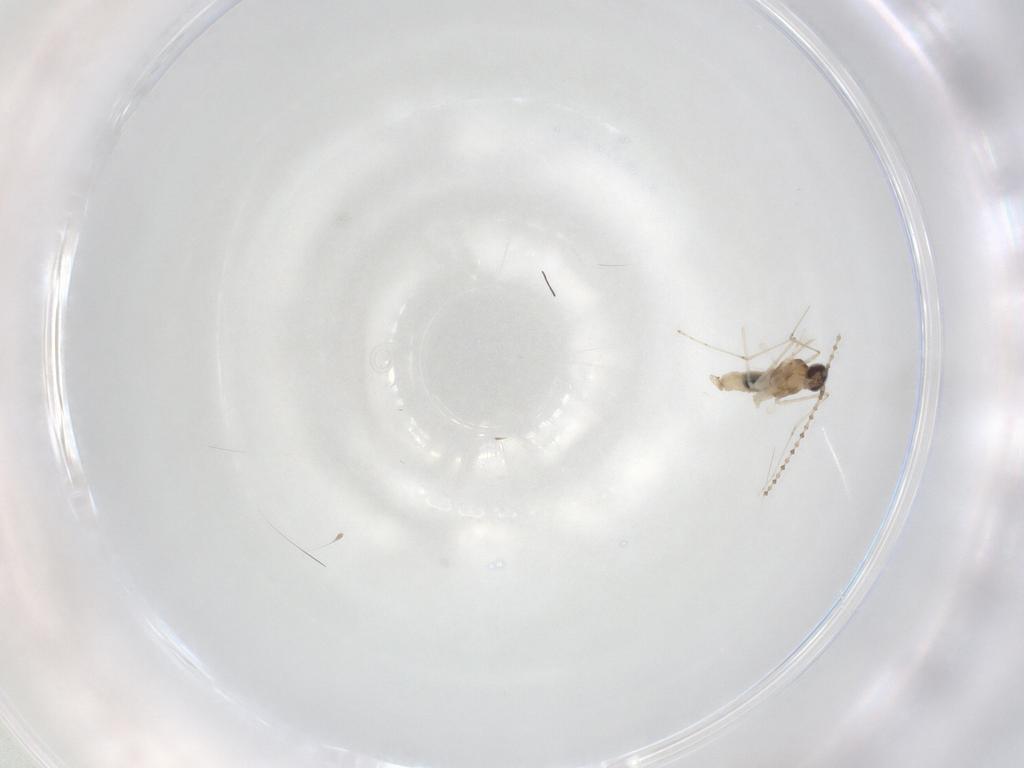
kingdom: Animalia
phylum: Arthropoda
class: Insecta
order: Diptera
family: Cecidomyiidae
